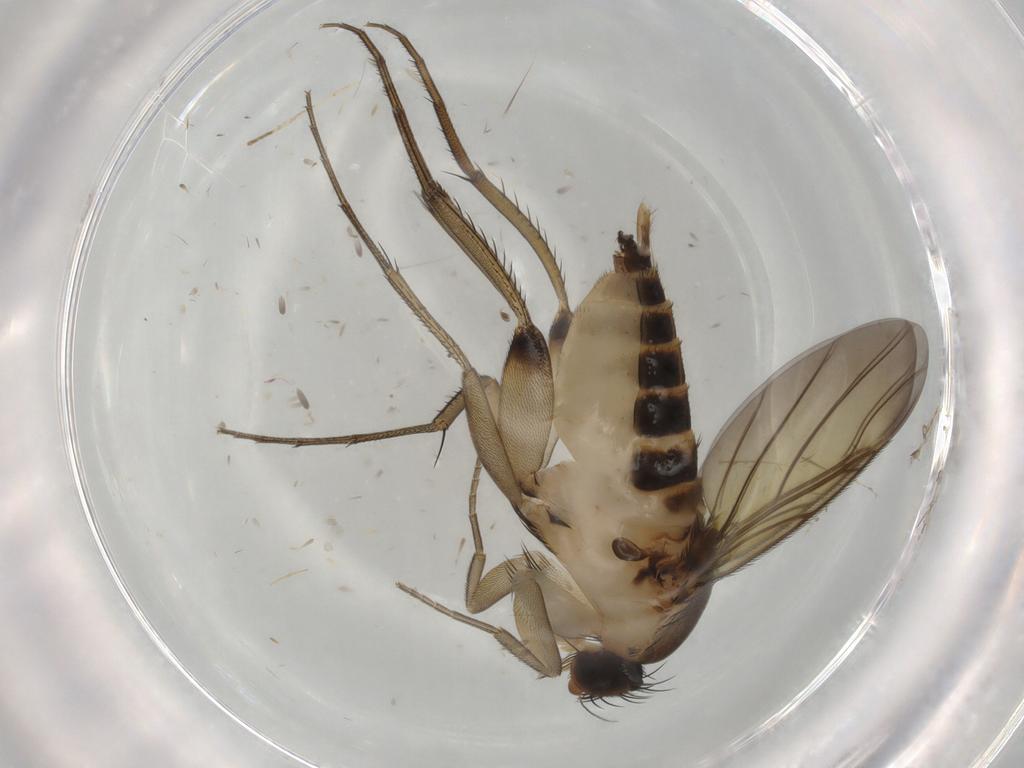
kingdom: Animalia
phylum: Arthropoda
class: Insecta
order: Diptera
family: Phoridae
